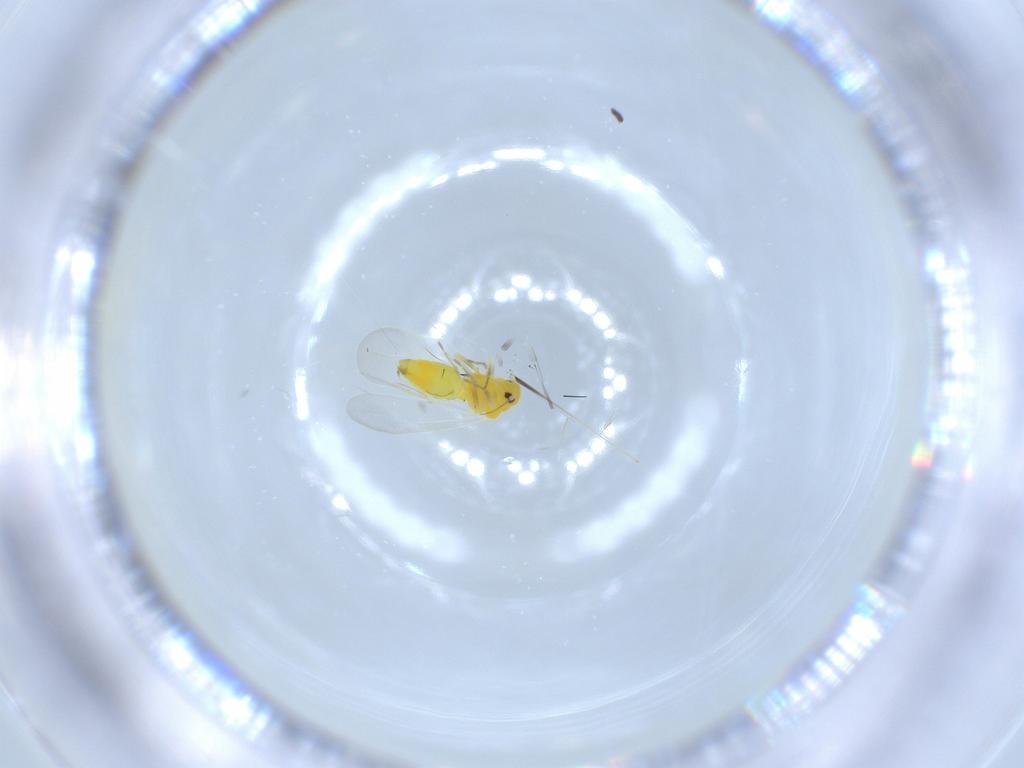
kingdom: Animalia
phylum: Arthropoda
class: Insecta
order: Hemiptera
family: Aleyrodidae
